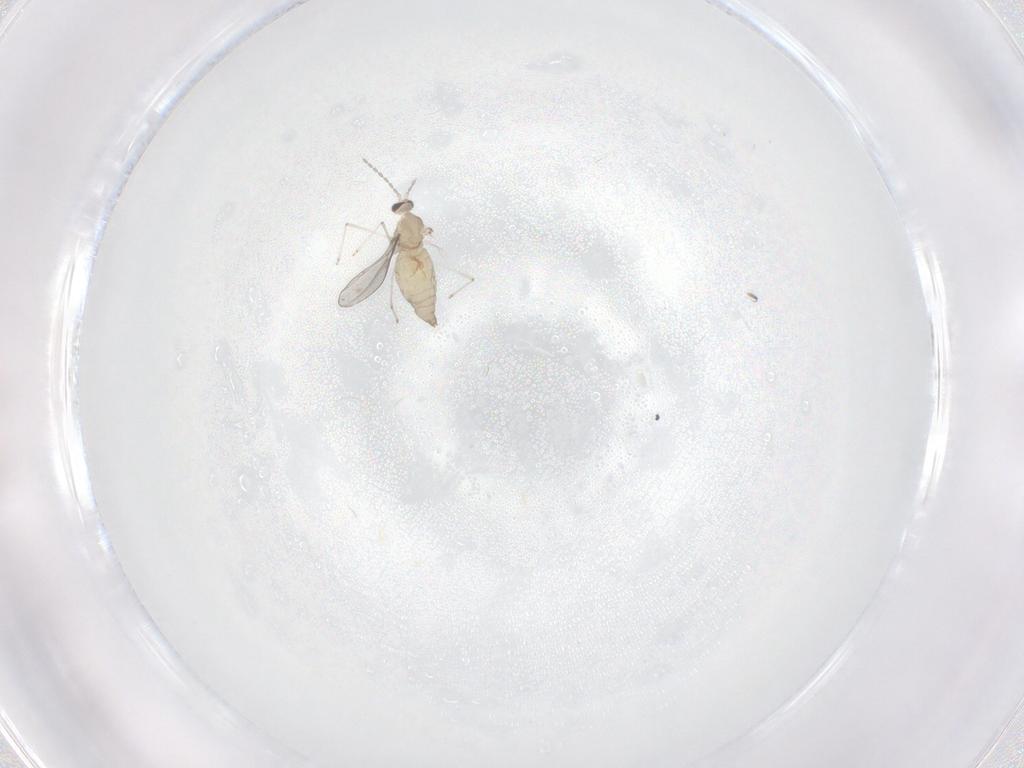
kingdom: Animalia
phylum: Arthropoda
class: Insecta
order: Diptera
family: Cecidomyiidae
